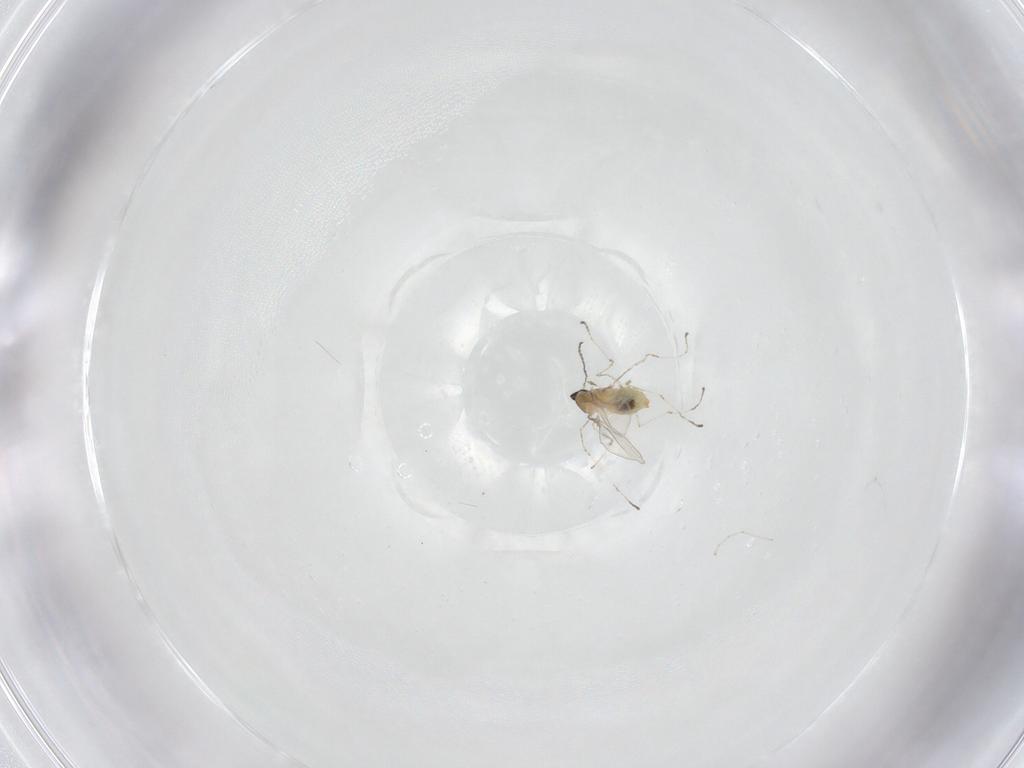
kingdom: Animalia
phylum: Arthropoda
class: Insecta
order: Diptera
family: Cecidomyiidae
